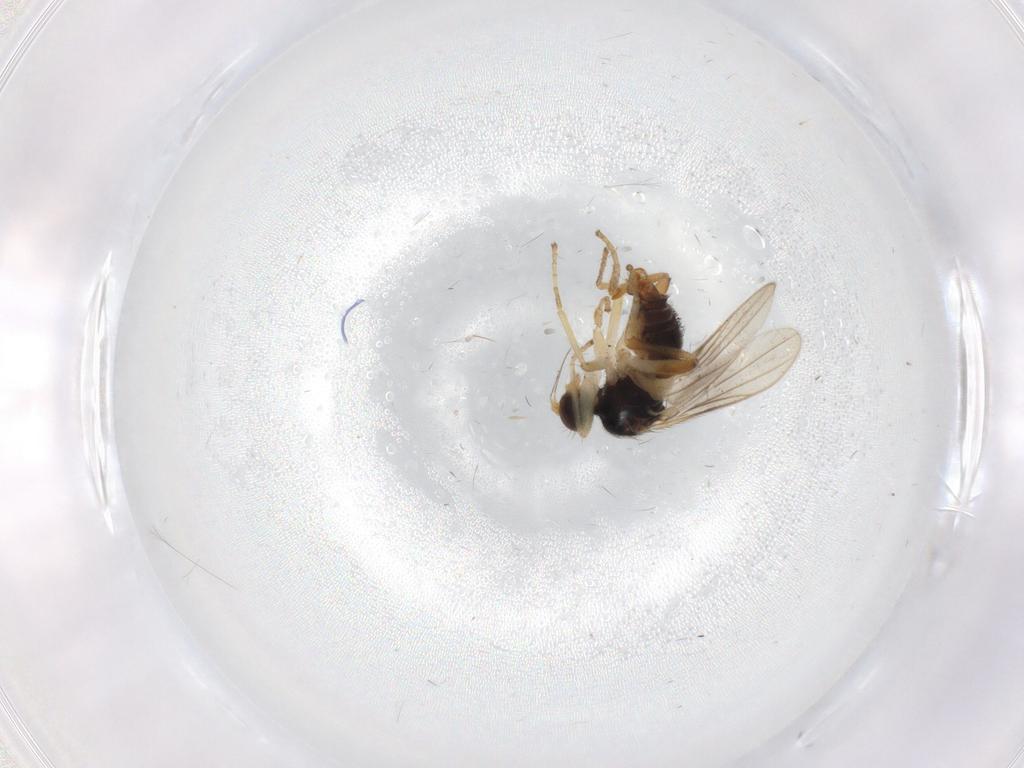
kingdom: Animalia
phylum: Arthropoda
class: Insecta
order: Diptera
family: Hybotidae
